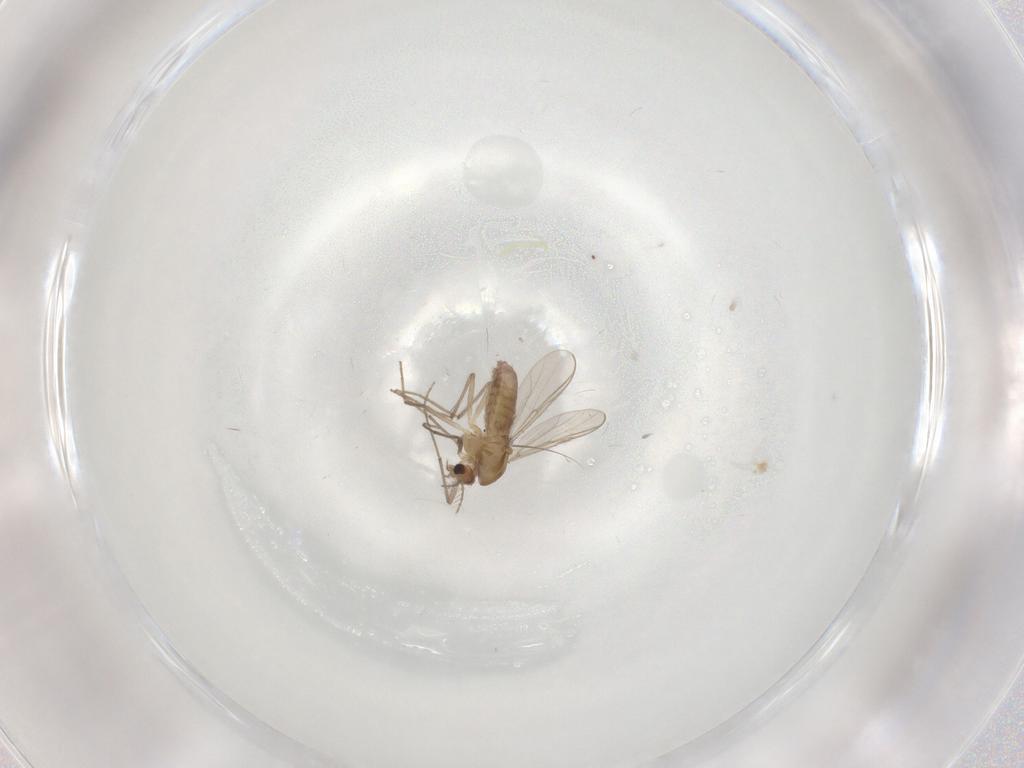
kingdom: Animalia
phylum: Arthropoda
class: Insecta
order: Diptera
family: Chironomidae
